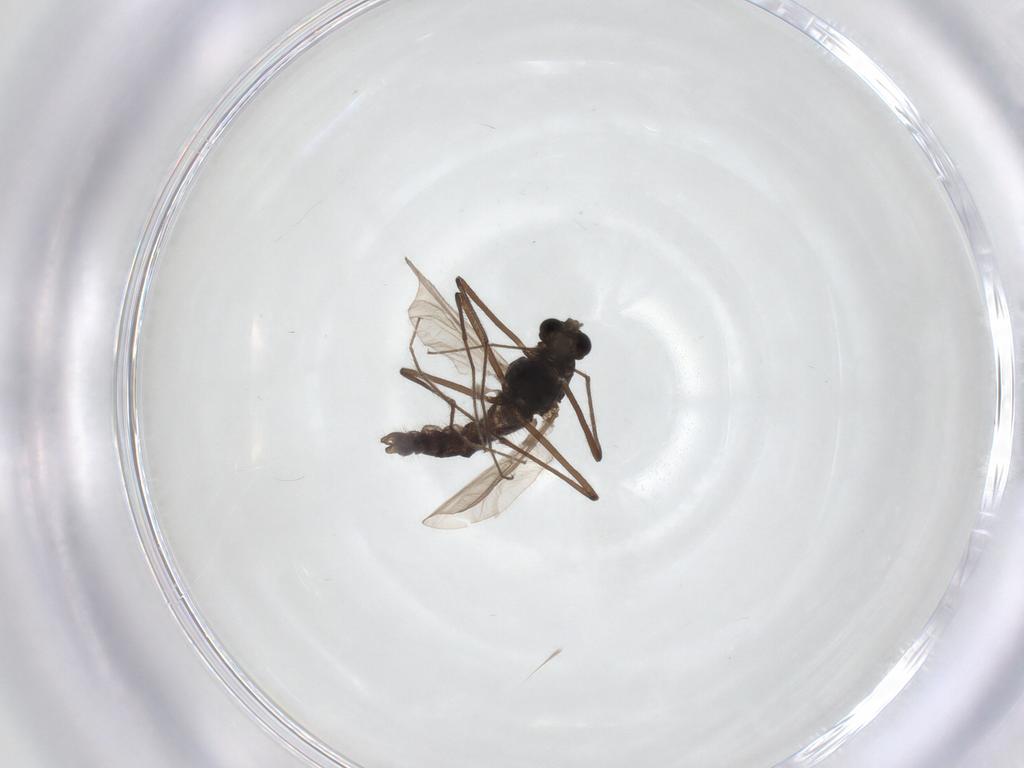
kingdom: Animalia
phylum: Arthropoda
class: Insecta
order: Diptera
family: Chironomidae
